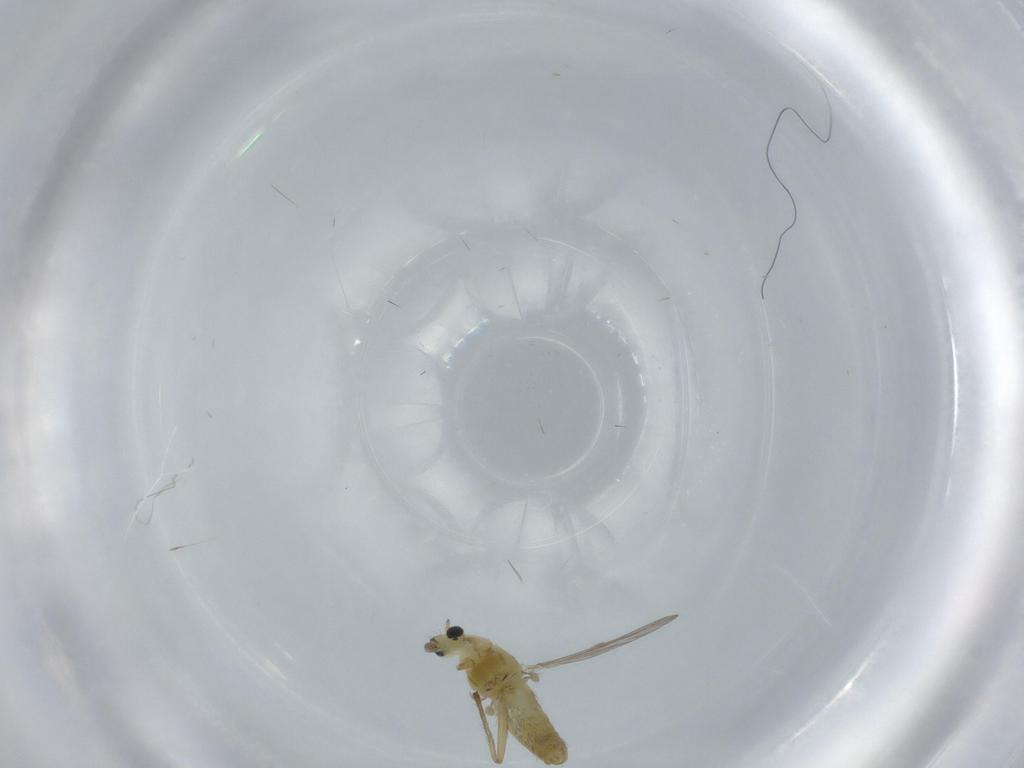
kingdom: Animalia
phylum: Arthropoda
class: Insecta
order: Diptera
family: Chironomidae
